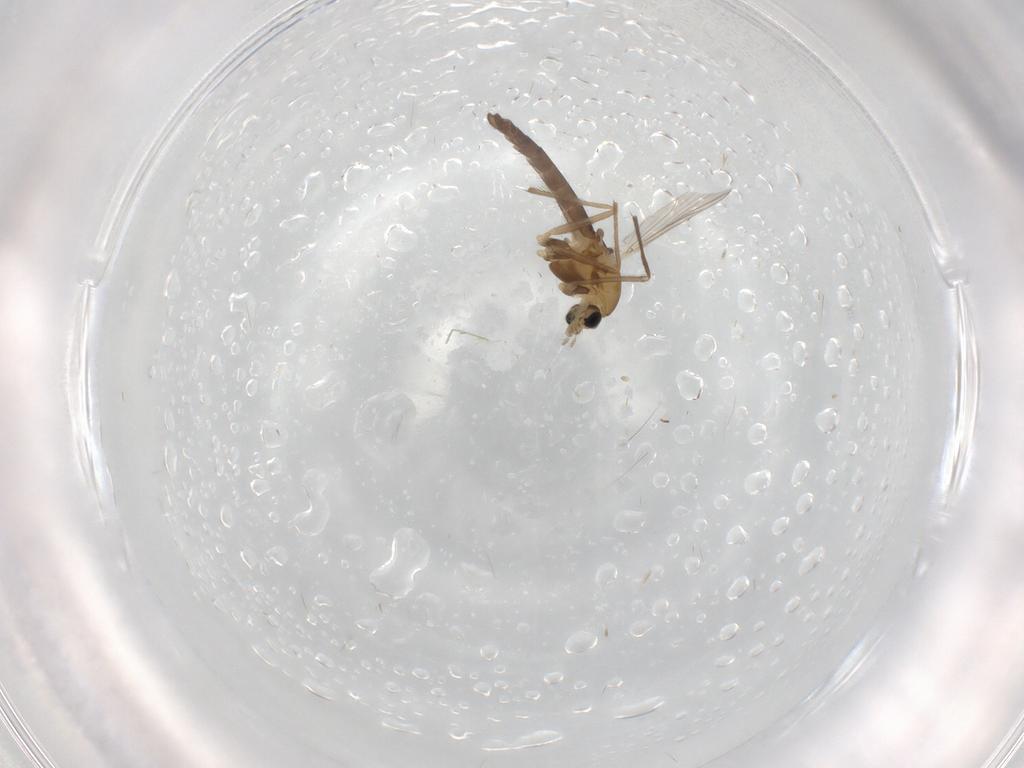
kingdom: Animalia
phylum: Arthropoda
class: Insecta
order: Diptera
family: Chironomidae
